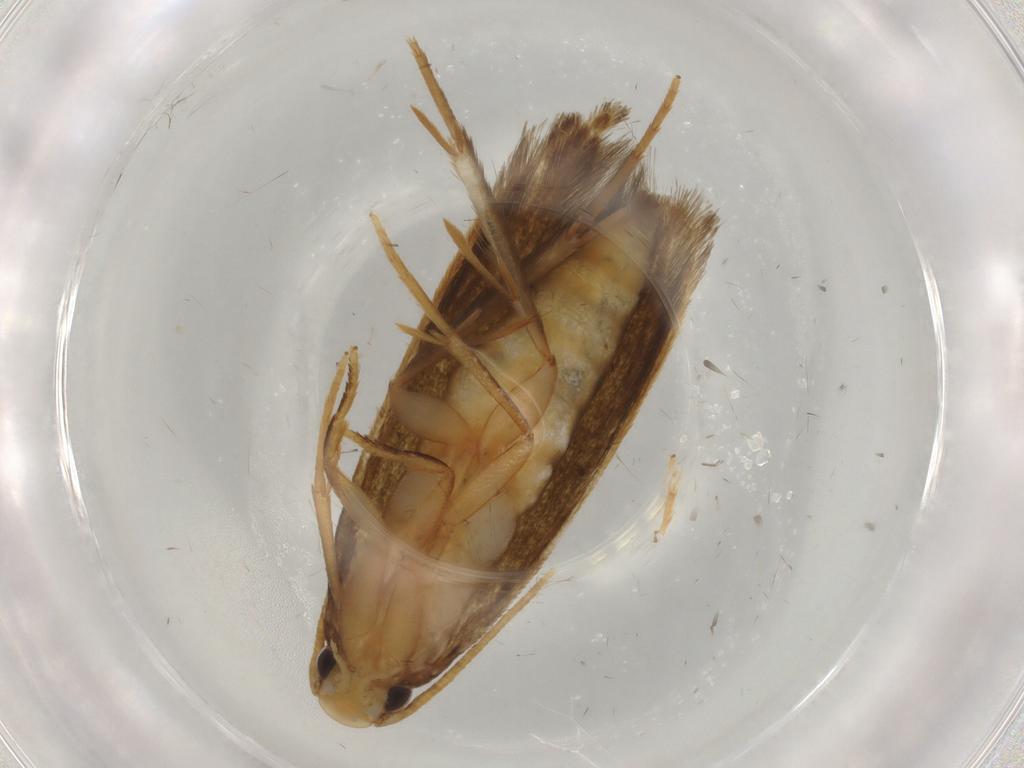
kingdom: Animalia
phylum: Arthropoda
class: Insecta
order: Lepidoptera
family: Tineidae
